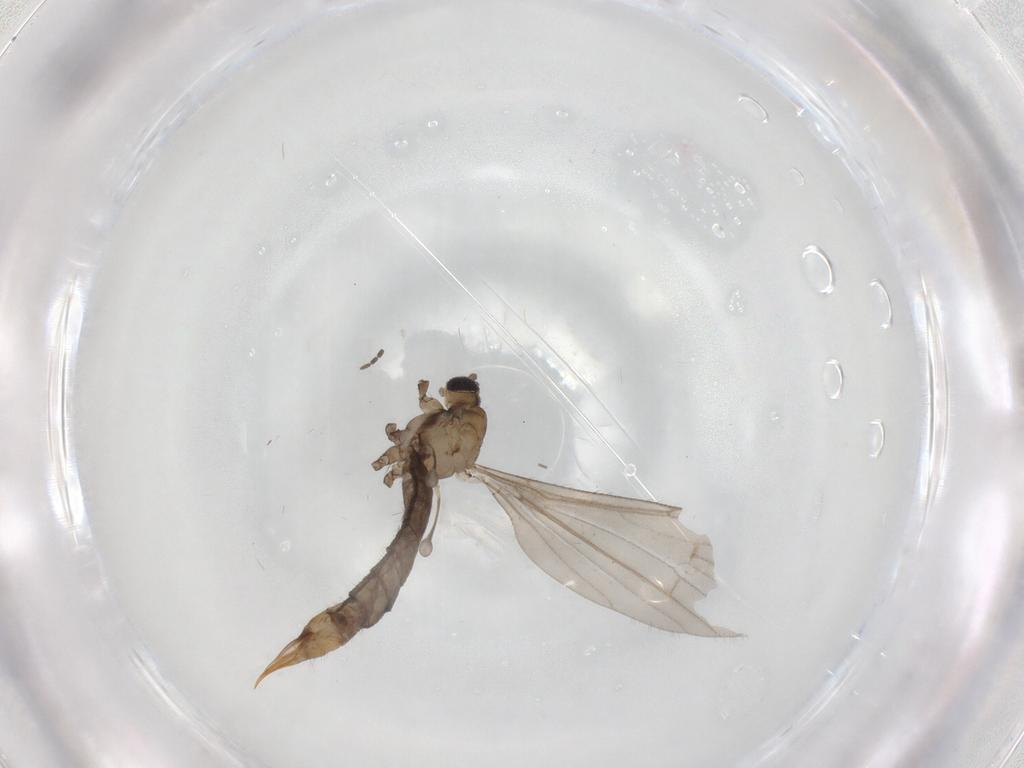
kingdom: Animalia
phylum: Arthropoda
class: Insecta
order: Diptera
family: Limoniidae
